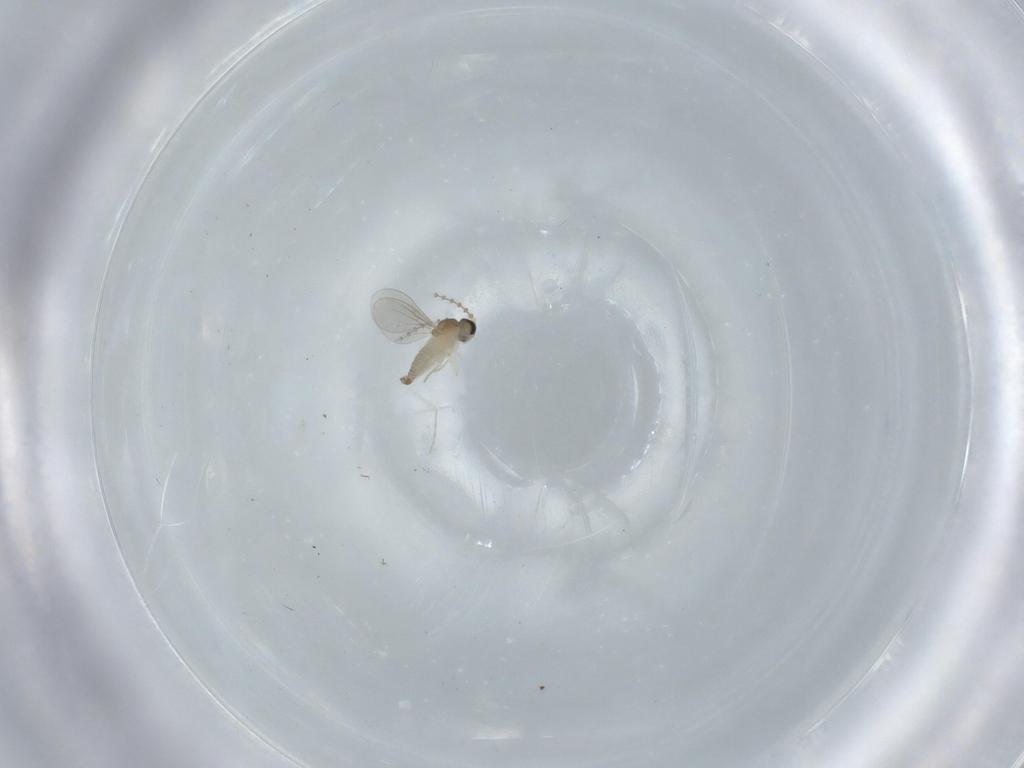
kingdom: Animalia
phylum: Arthropoda
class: Insecta
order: Diptera
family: Cecidomyiidae
